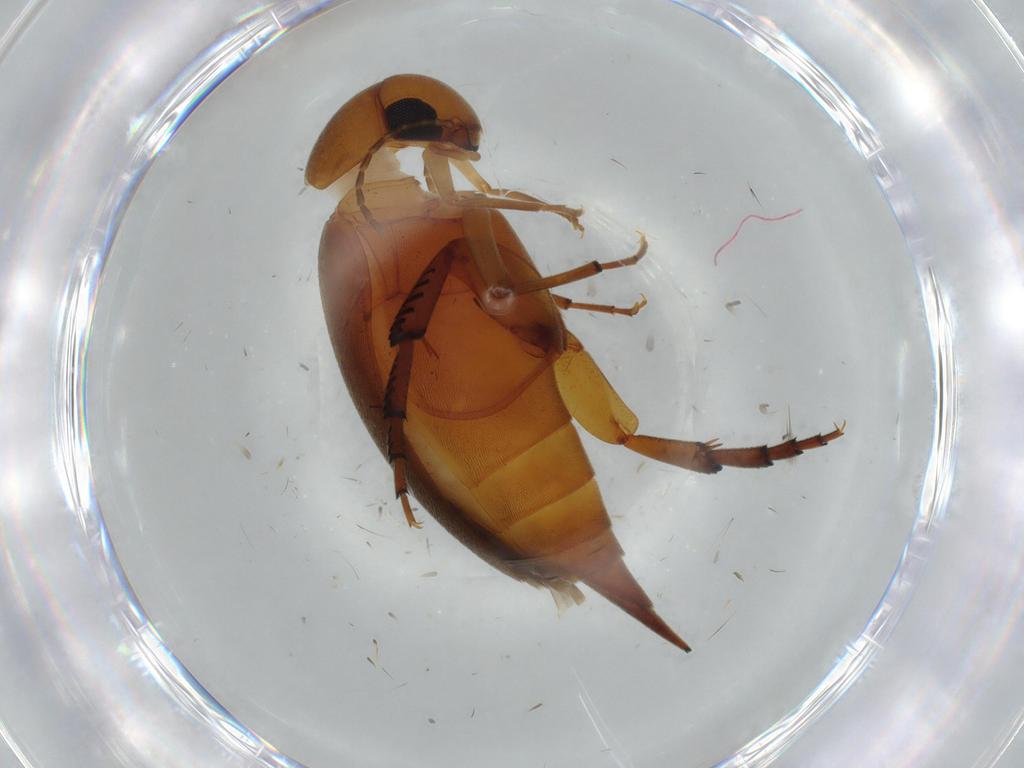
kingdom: Animalia
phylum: Arthropoda
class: Insecta
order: Coleoptera
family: Mordellidae
